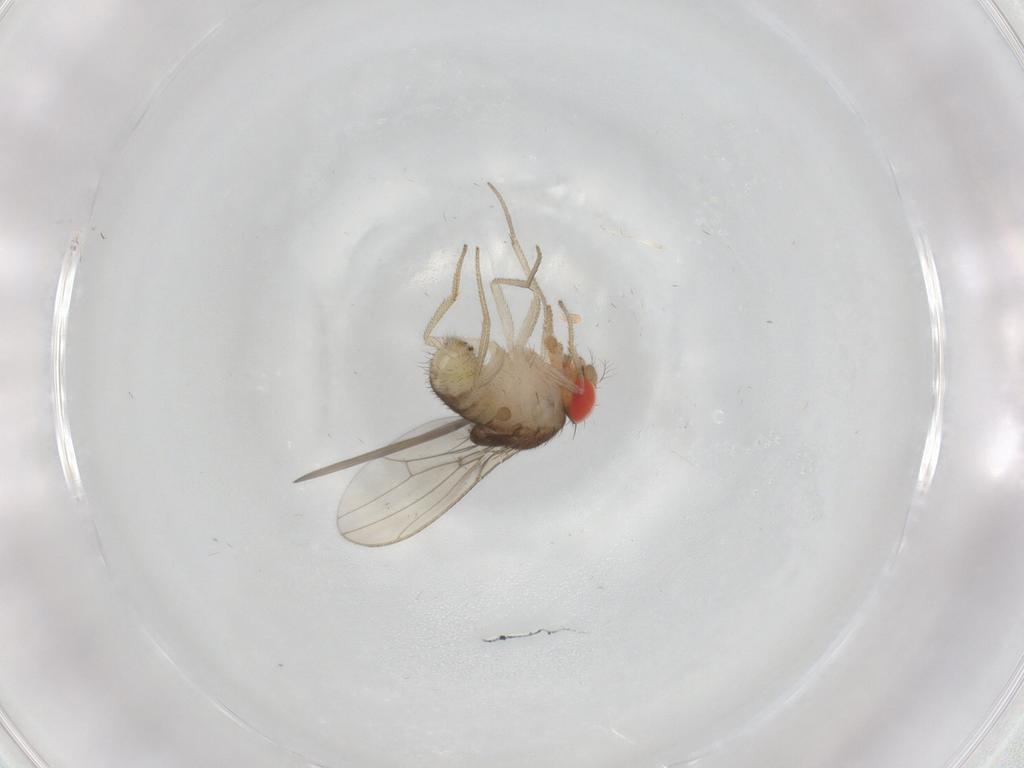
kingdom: Animalia
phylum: Arthropoda
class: Insecta
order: Diptera
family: Drosophilidae
